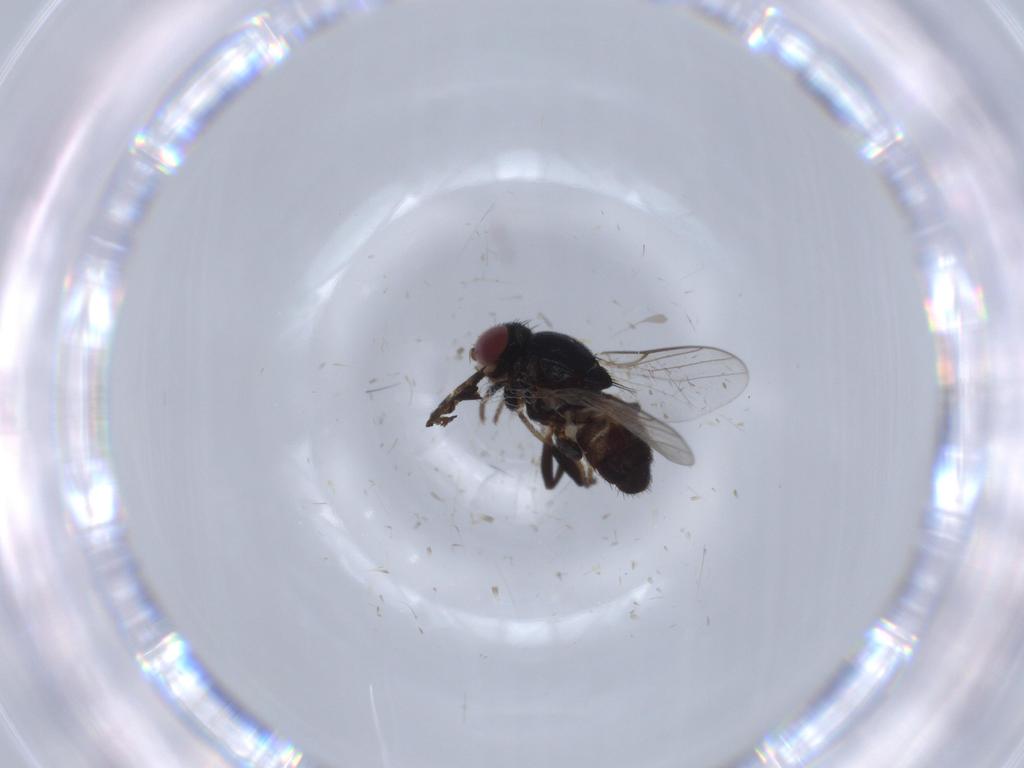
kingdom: Animalia
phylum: Arthropoda
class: Insecta
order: Diptera
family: Chloropidae
